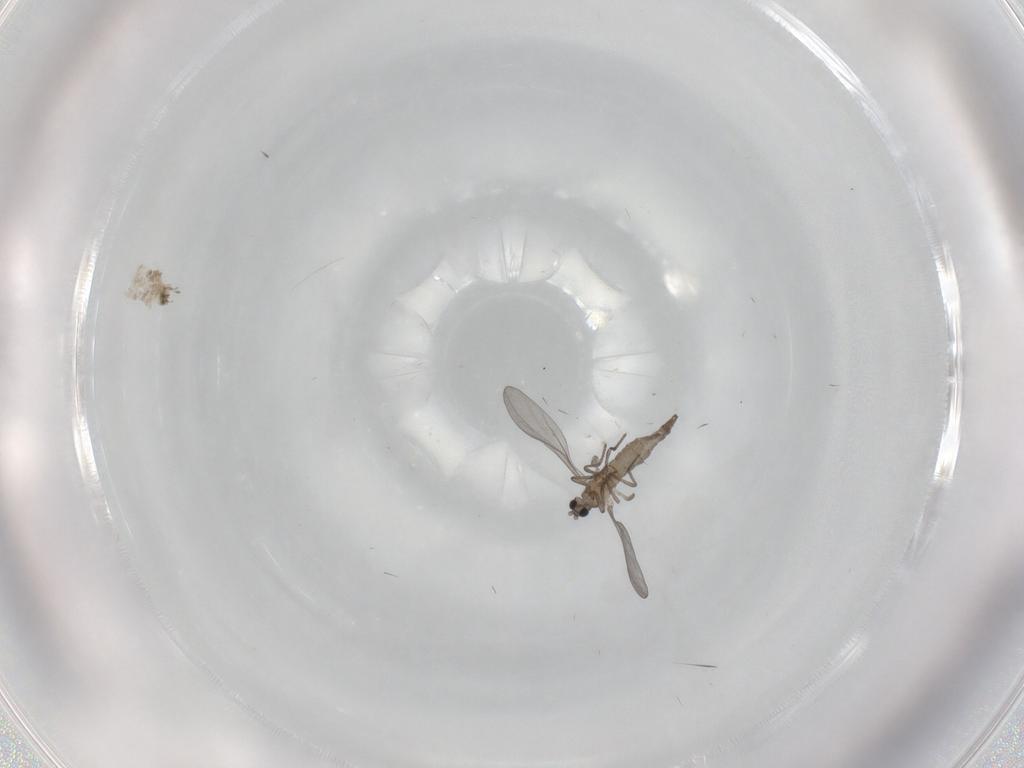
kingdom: Animalia
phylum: Arthropoda
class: Insecta
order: Diptera
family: Cecidomyiidae
